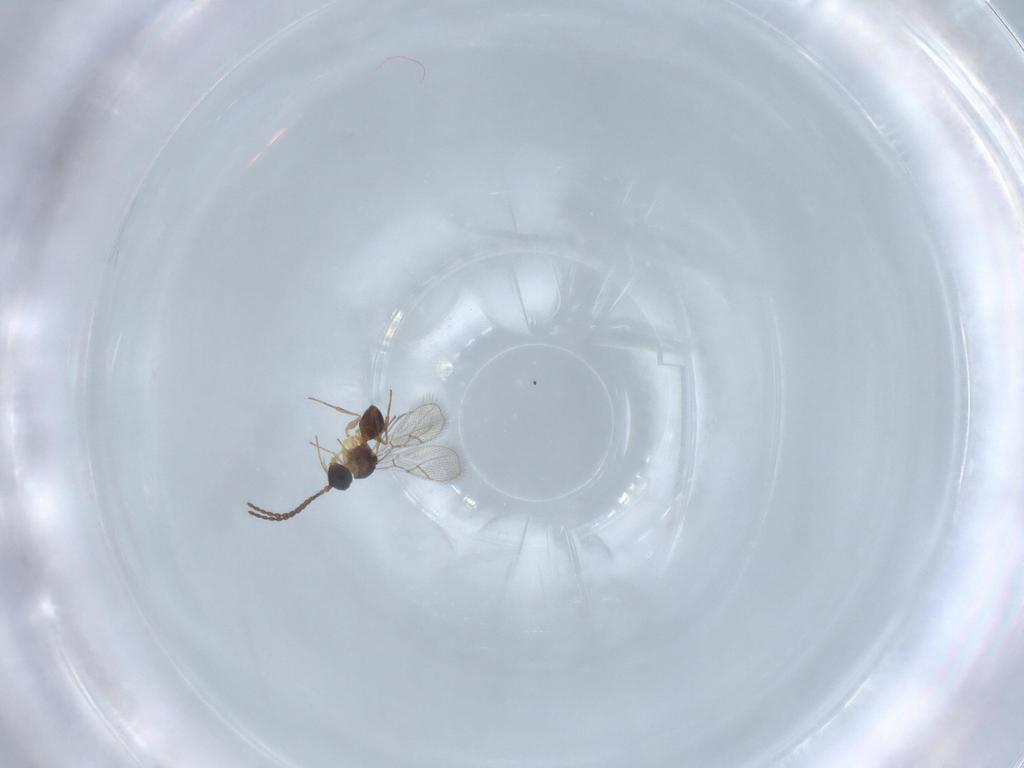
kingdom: Animalia
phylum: Arthropoda
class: Insecta
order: Hymenoptera
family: Figitidae
